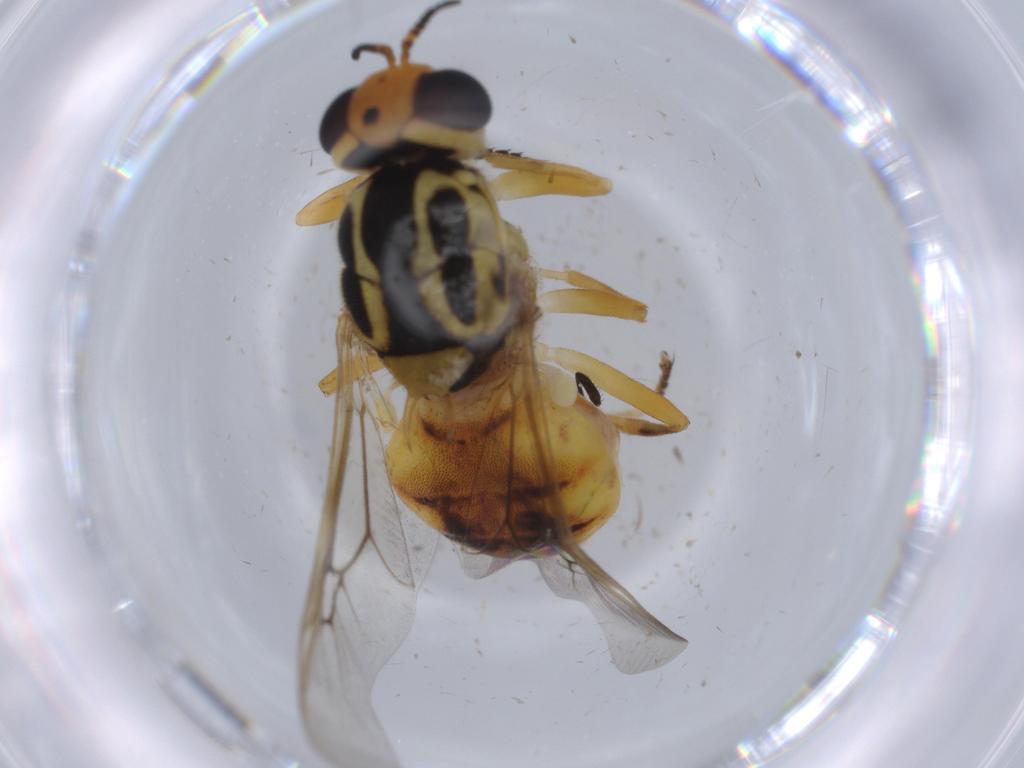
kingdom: Animalia
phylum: Arthropoda
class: Insecta
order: Diptera
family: Stratiomyidae
